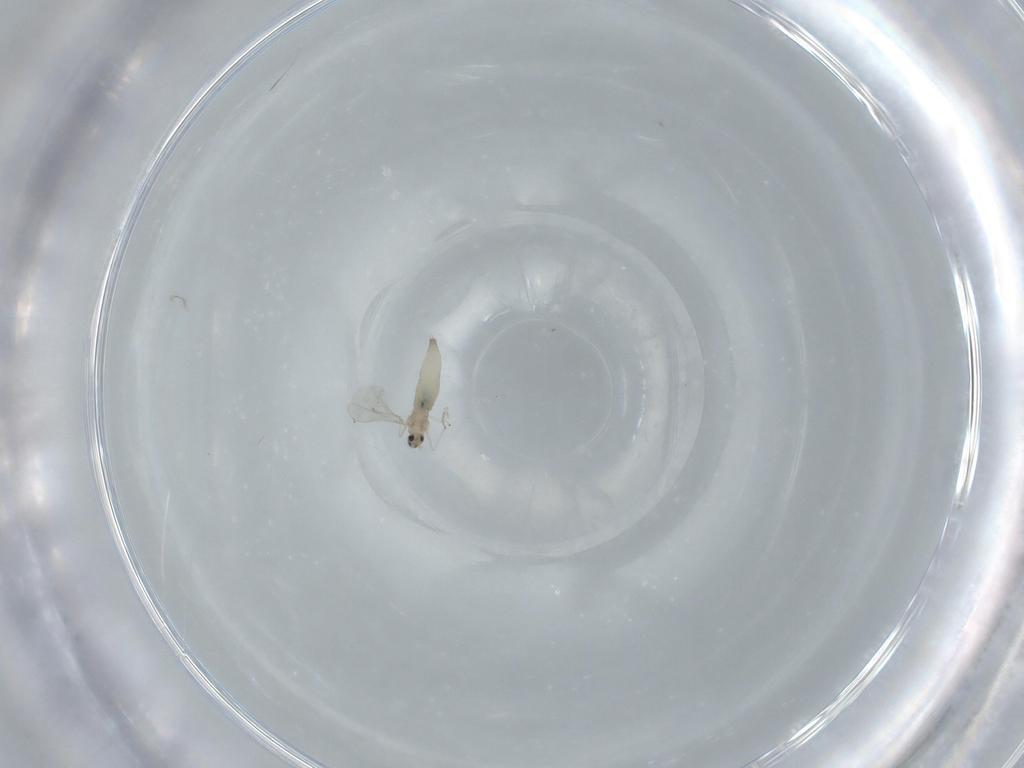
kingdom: Animalia
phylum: Arthropoda
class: Insecta
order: Diptera
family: Cecidomyiidae
